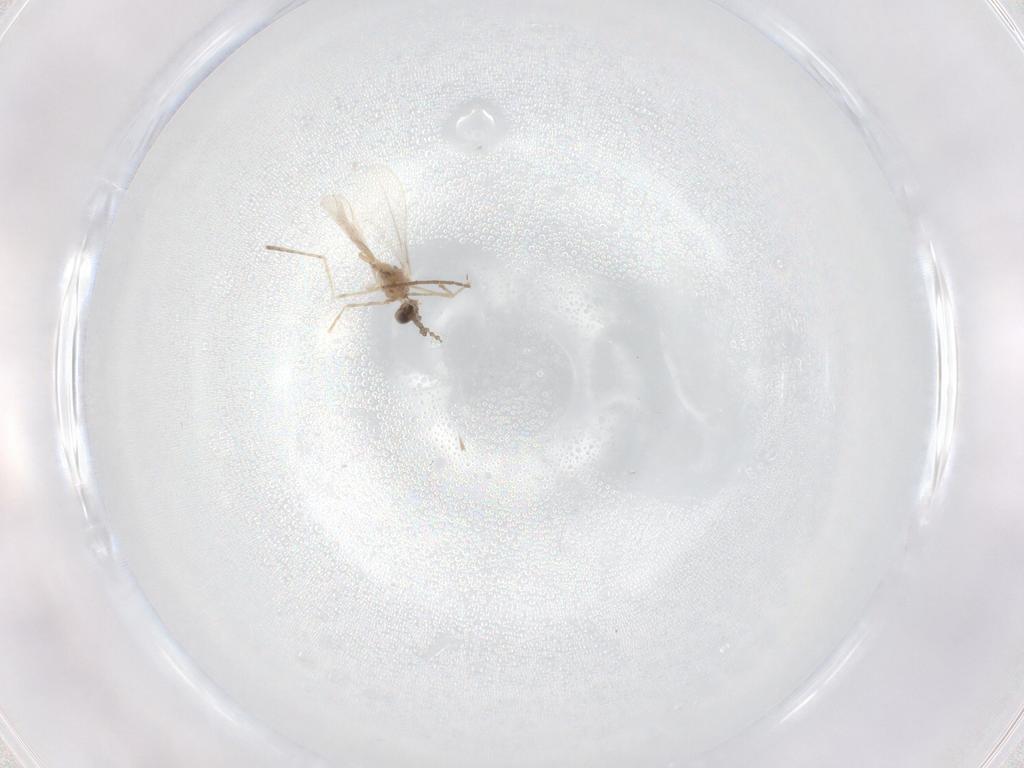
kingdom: Animalia
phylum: Arthropoda
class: Insecta
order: Diptera
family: Cecidomyiidae
